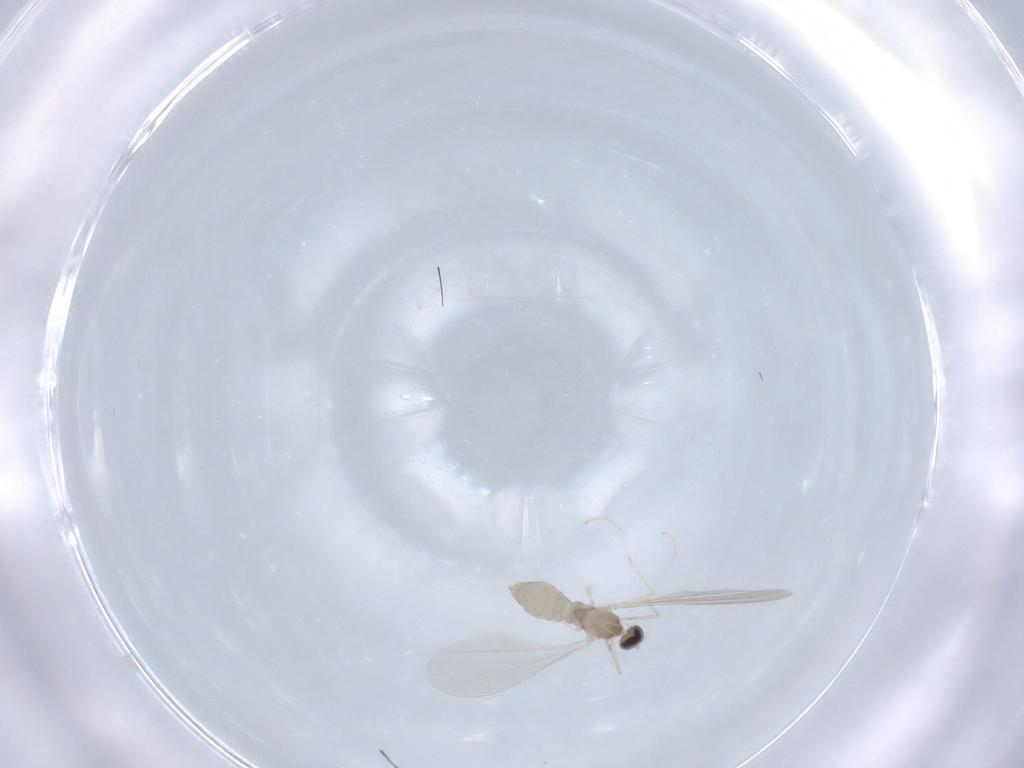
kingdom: Animalia
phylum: Arthropoda
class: Insecta
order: Diptera
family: Cecidomyiidae
